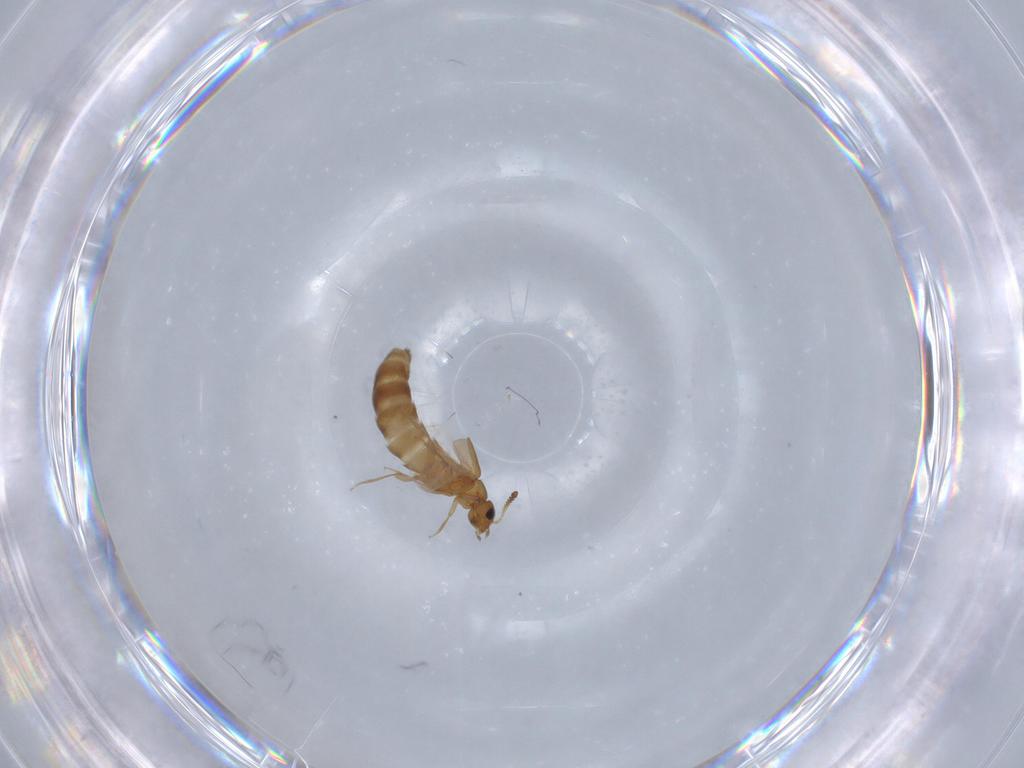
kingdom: Animalia
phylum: Arthropoda
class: Insecta
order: Coleoptera
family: Staphylinidae
